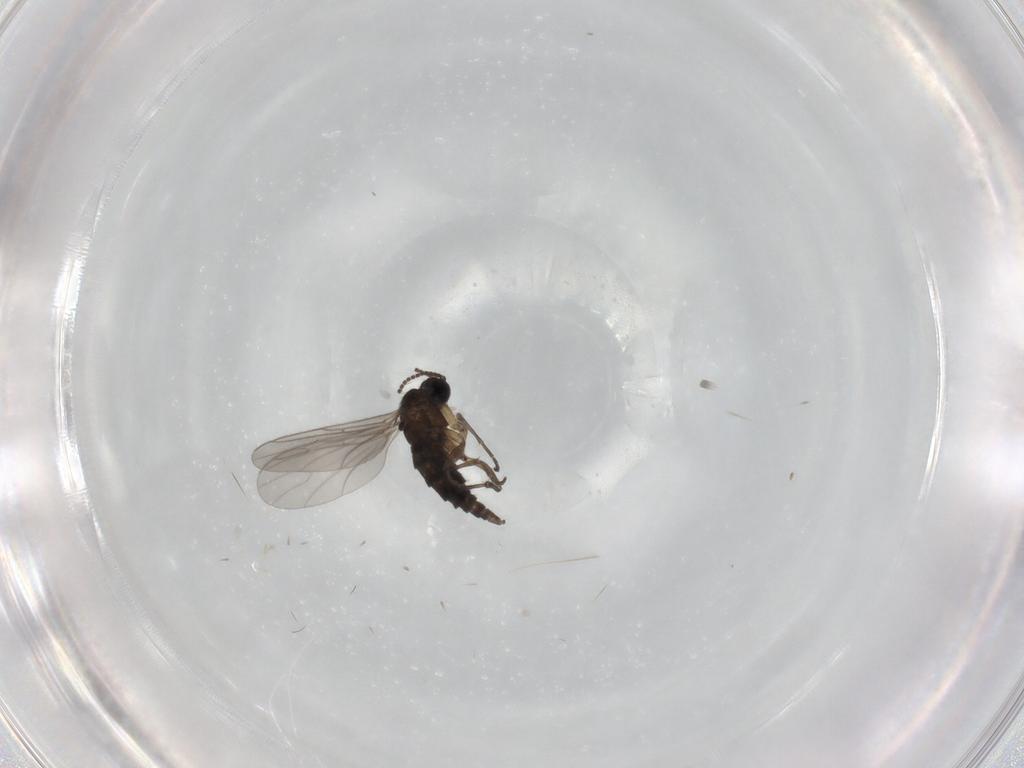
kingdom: Animalia
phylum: Arthropoda
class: Insecta
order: Diptera
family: Sciaridae
